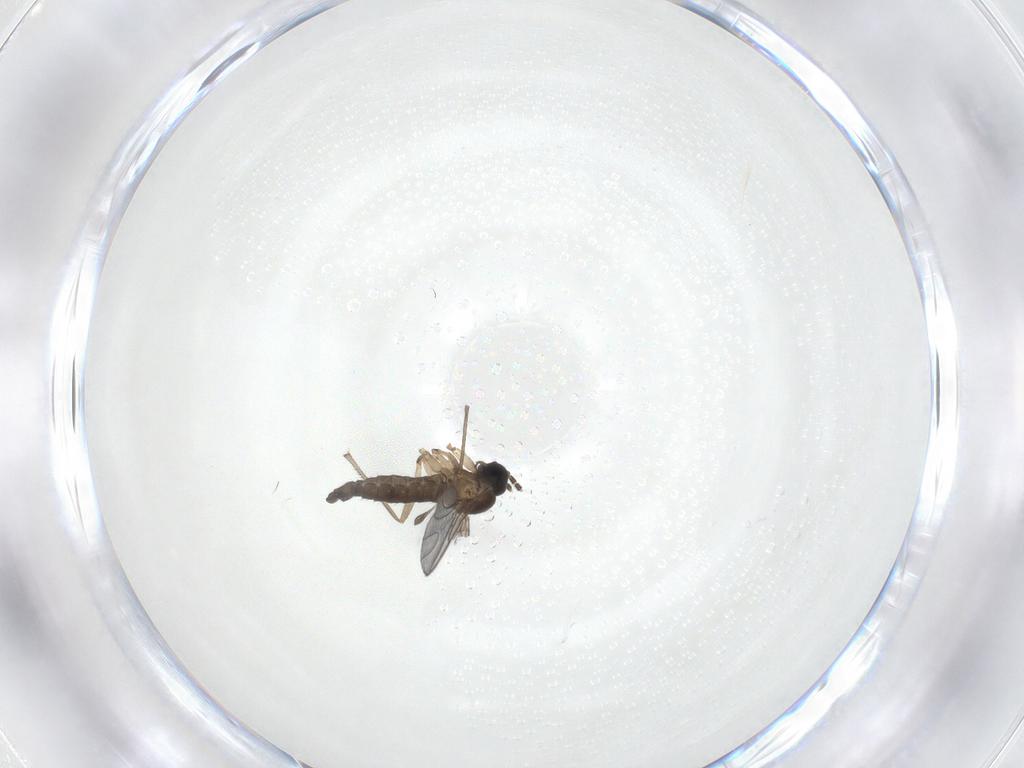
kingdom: Animalia
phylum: Arthropoda
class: Insecta
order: Diptera
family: Sciaridae
